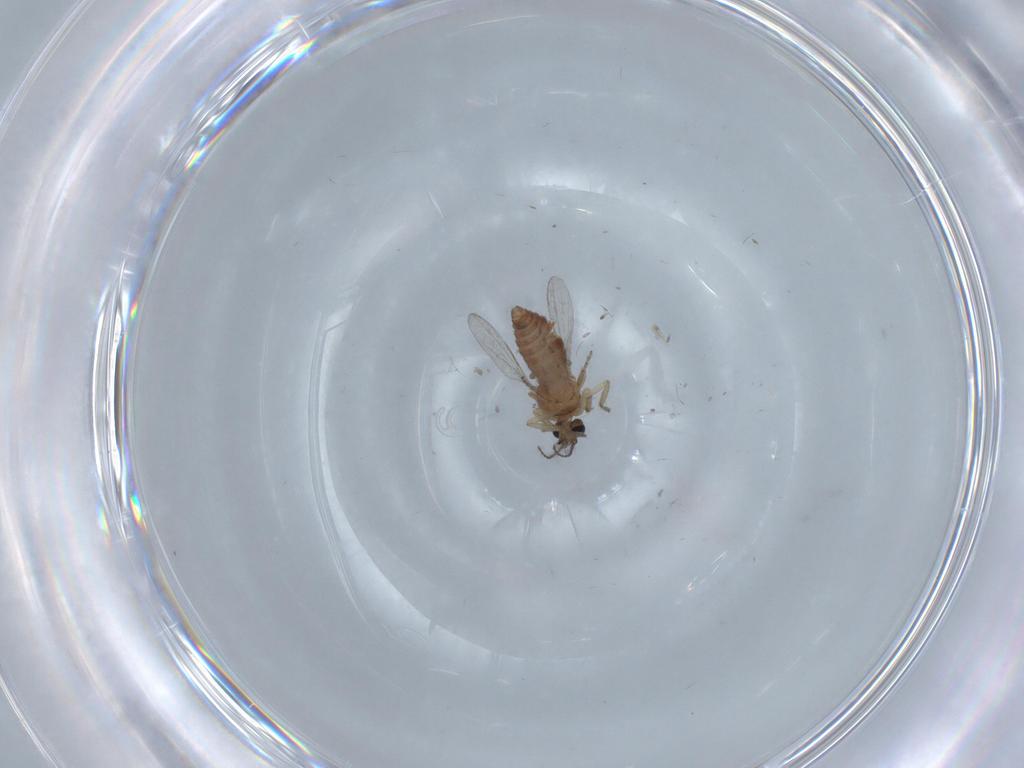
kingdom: Animalia
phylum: Arthropoda
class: Insecta
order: Diptera
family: Ceratopogonidae
